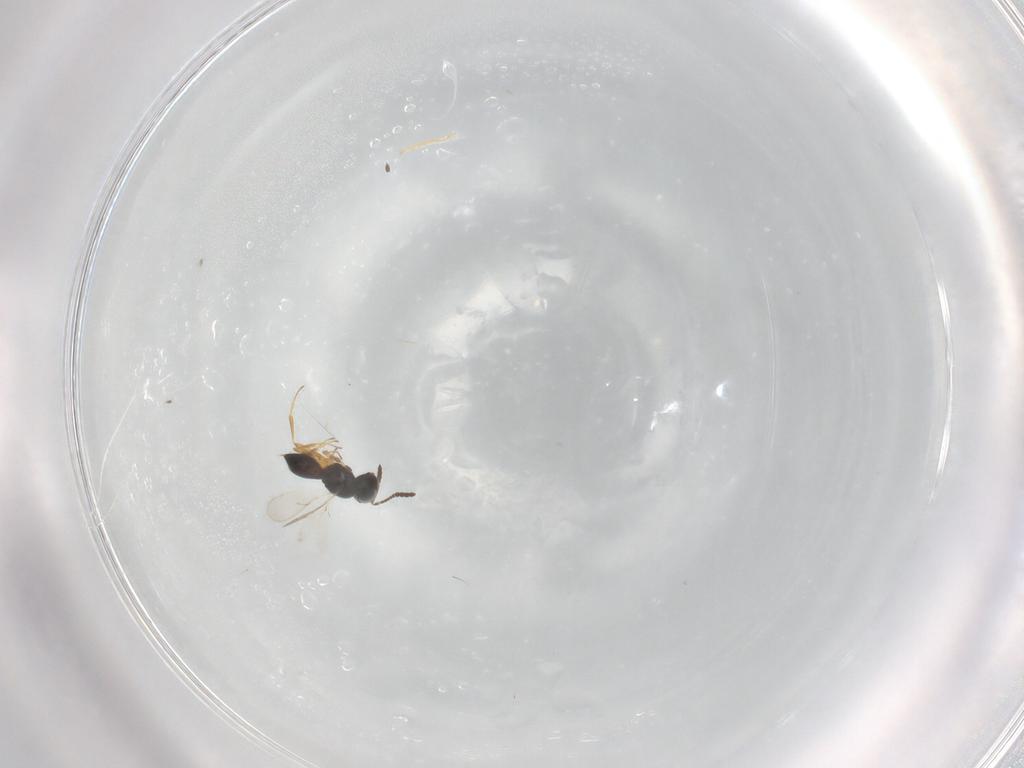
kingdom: Animalia
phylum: Arthropoda
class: Insecta
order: Hymenoptera
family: Scelionidae
